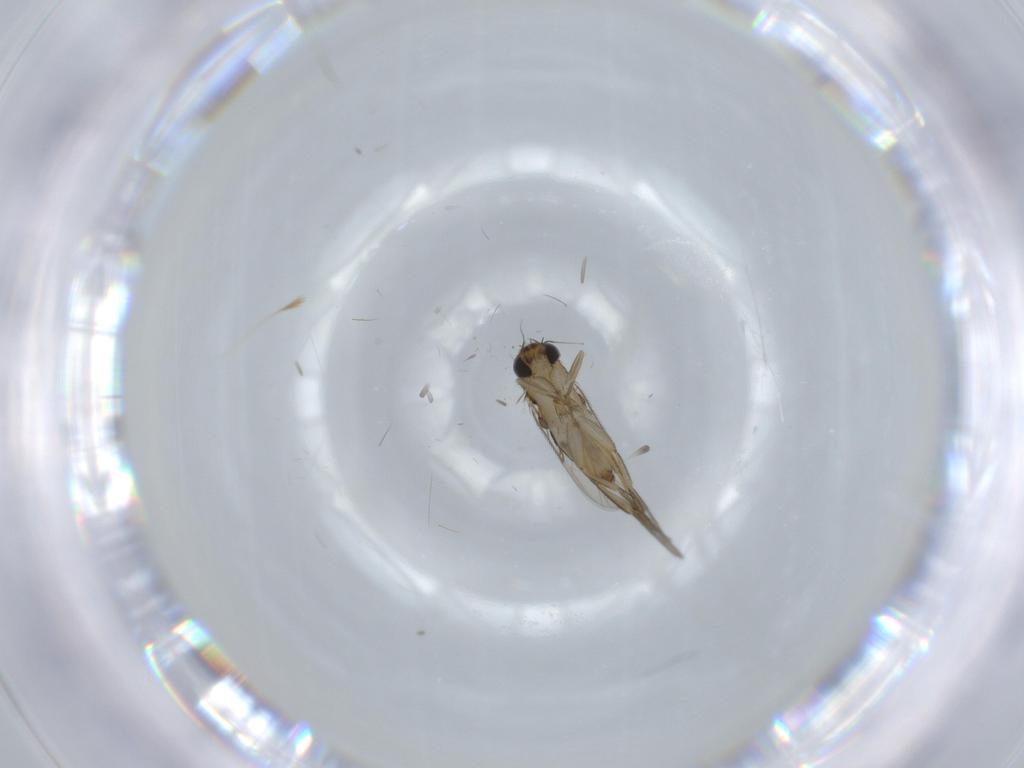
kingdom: Animalia
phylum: Arthropoda
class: Insecta
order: Diptera
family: Phoridae
